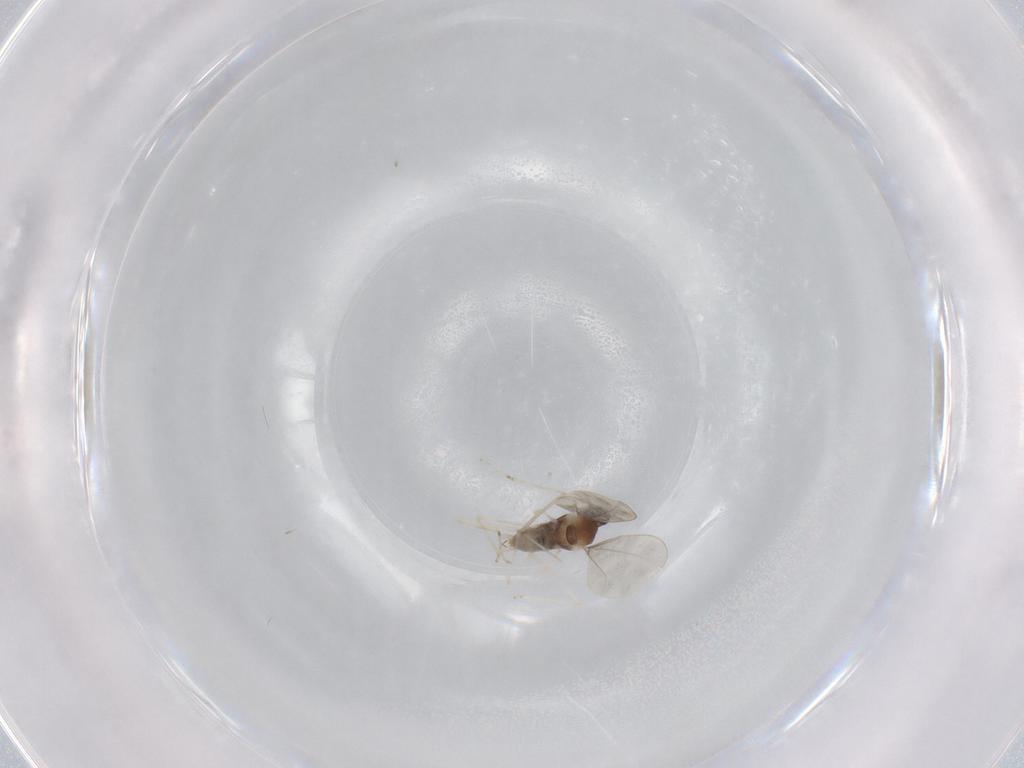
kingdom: Animalia
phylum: Arthropoda
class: Insecta
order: Diptera
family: Cecidomyiidae
